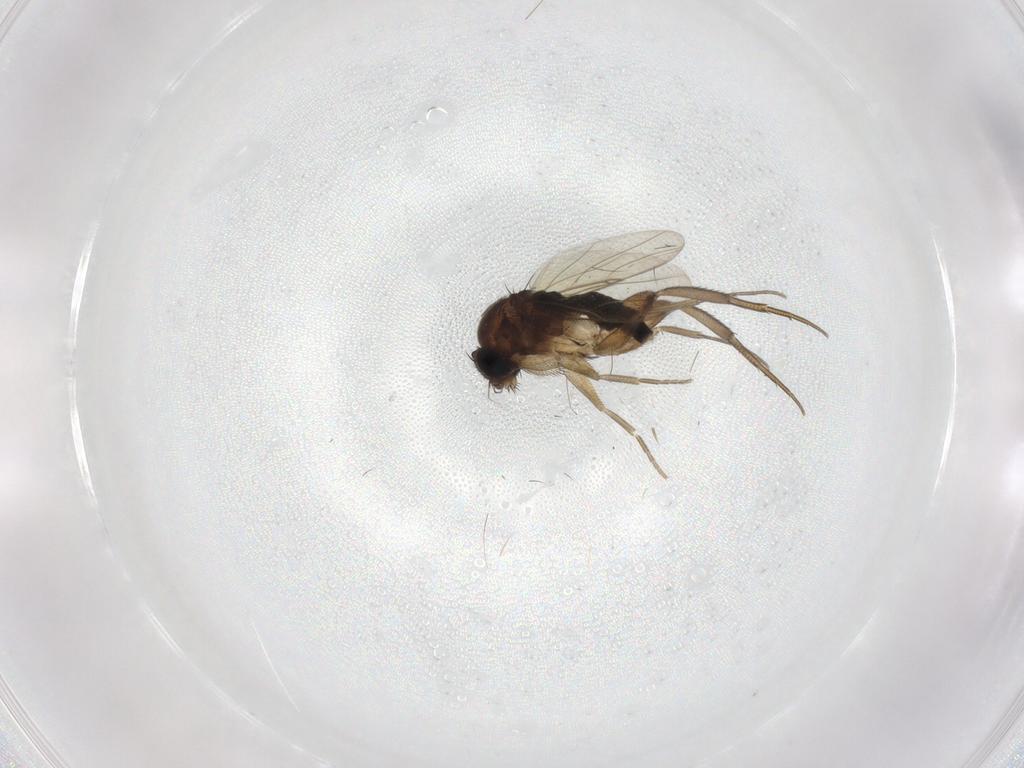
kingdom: Animalia
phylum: Arthropoda
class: Insecta
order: Diptera
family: Phoridae
